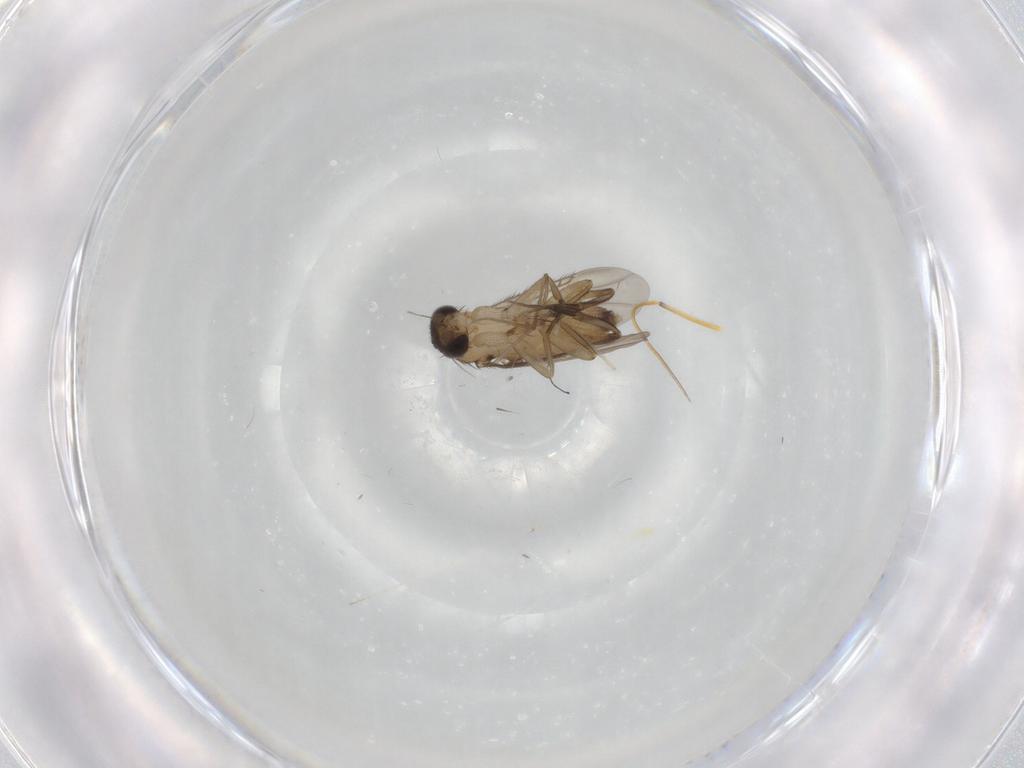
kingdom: Animalia
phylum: Arthropoda
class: Insecta
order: Diptera
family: Phoridae
